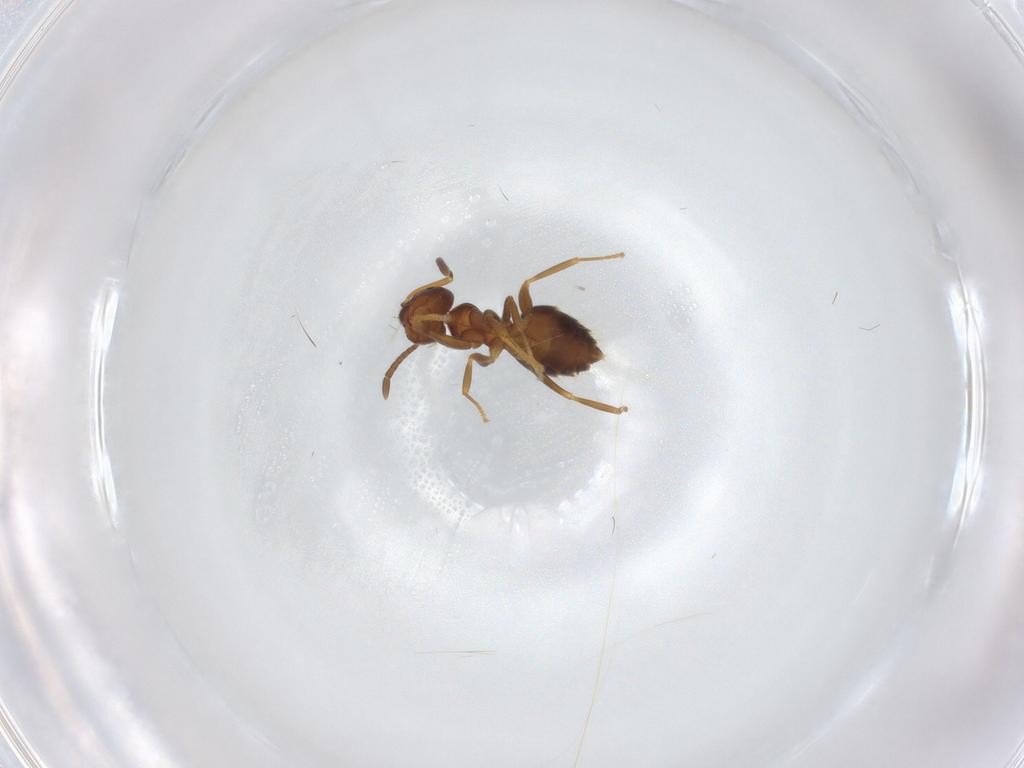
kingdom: Animalia
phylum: Arthropoda
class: Insecta
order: Hymenoptera
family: Formicidae
